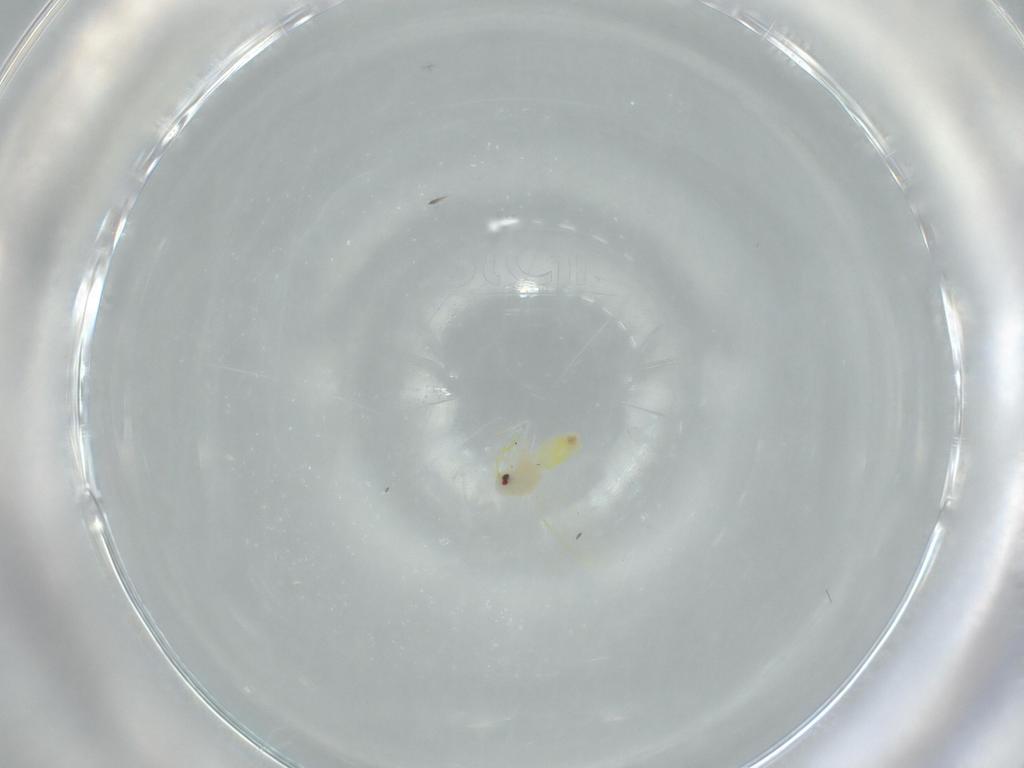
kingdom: Animalia
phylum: Arthropoda
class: Insecta
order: Hemiptera
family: Aleyrodidae
